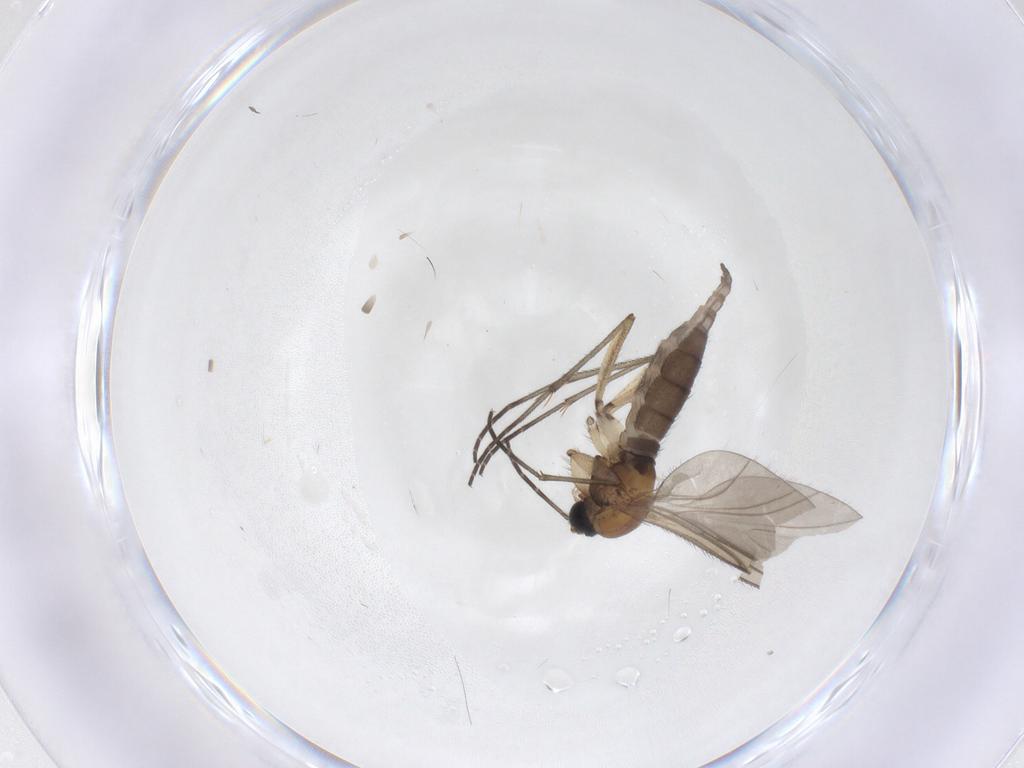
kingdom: Animalia
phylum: Arthropoda
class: Insecta
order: Diptera
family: Sciaridae
